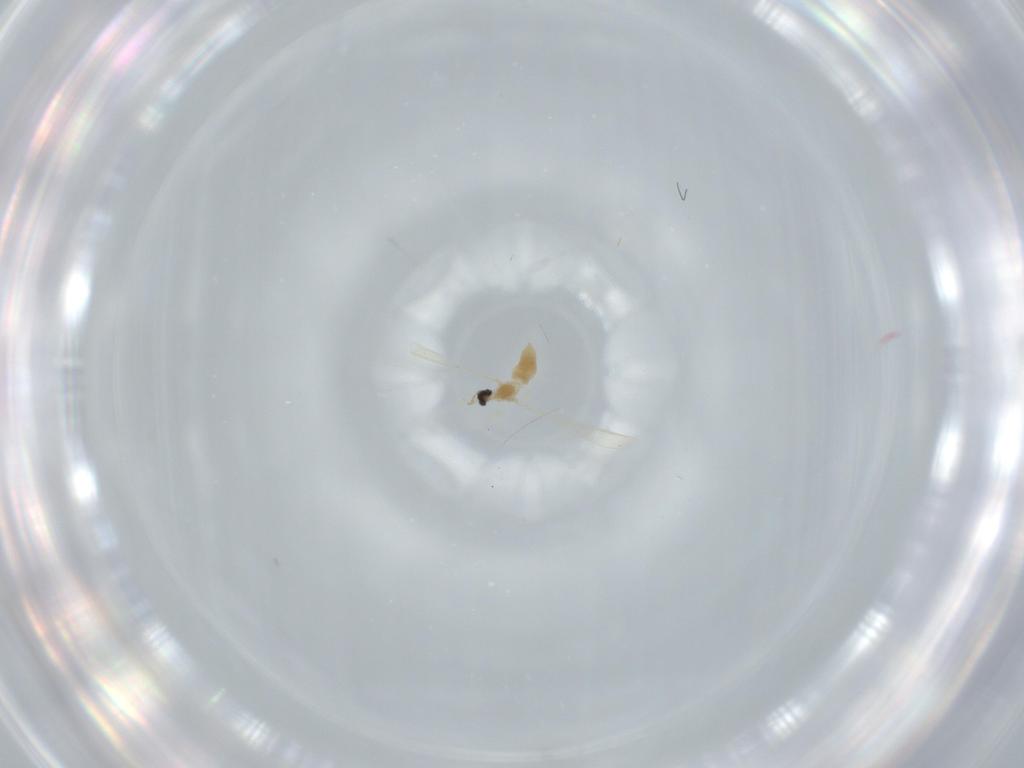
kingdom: Animalia
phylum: Arthropoda
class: Insecta
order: Diptera
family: Cecidomyiidae
